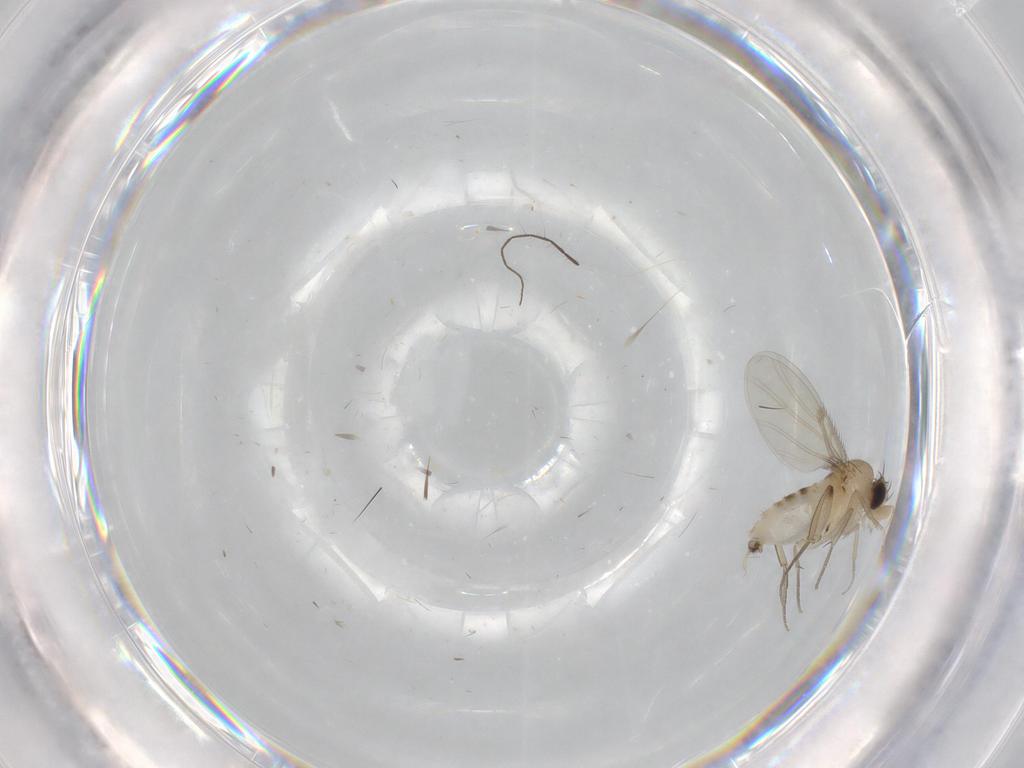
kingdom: Animalia
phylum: Arthropoda
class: Insecta
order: Diptera
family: Phoridae
